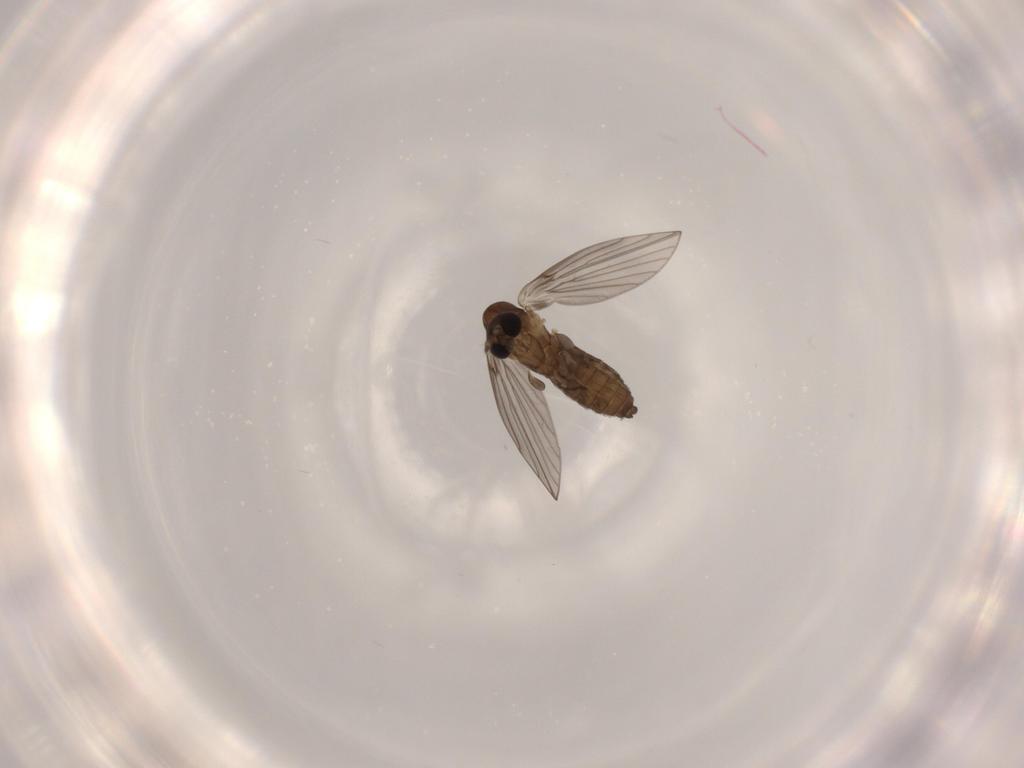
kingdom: Animalia
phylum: Arthropoda
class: Insecta
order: Diptera
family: Psychodidae
